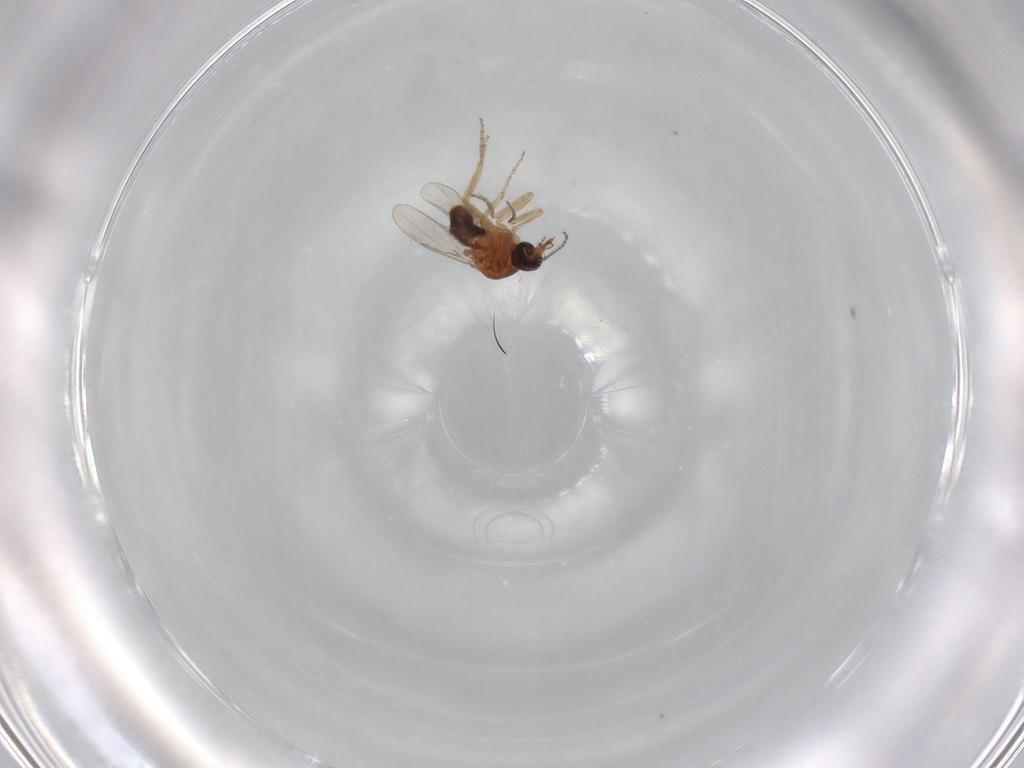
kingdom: Animalia
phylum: Arthropoda
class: Insecta
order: Diptera
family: Ceratopogonidae
